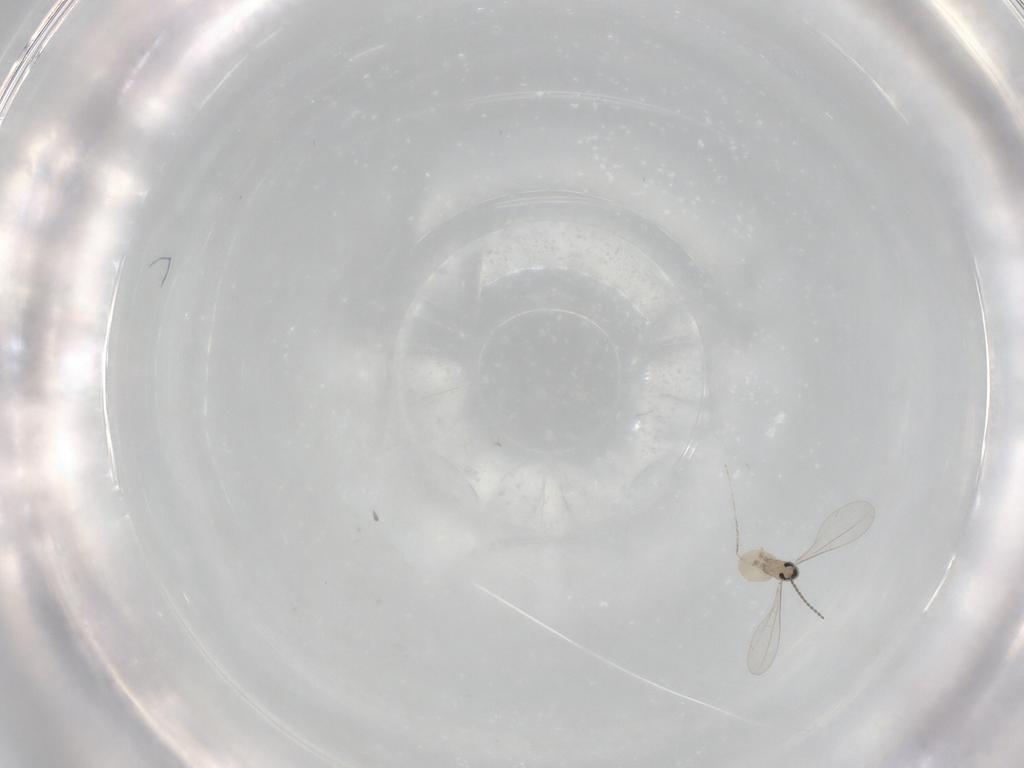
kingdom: Animalia
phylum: Arthropoda
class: Insecta
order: Diptera
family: Cecidomyiidae
